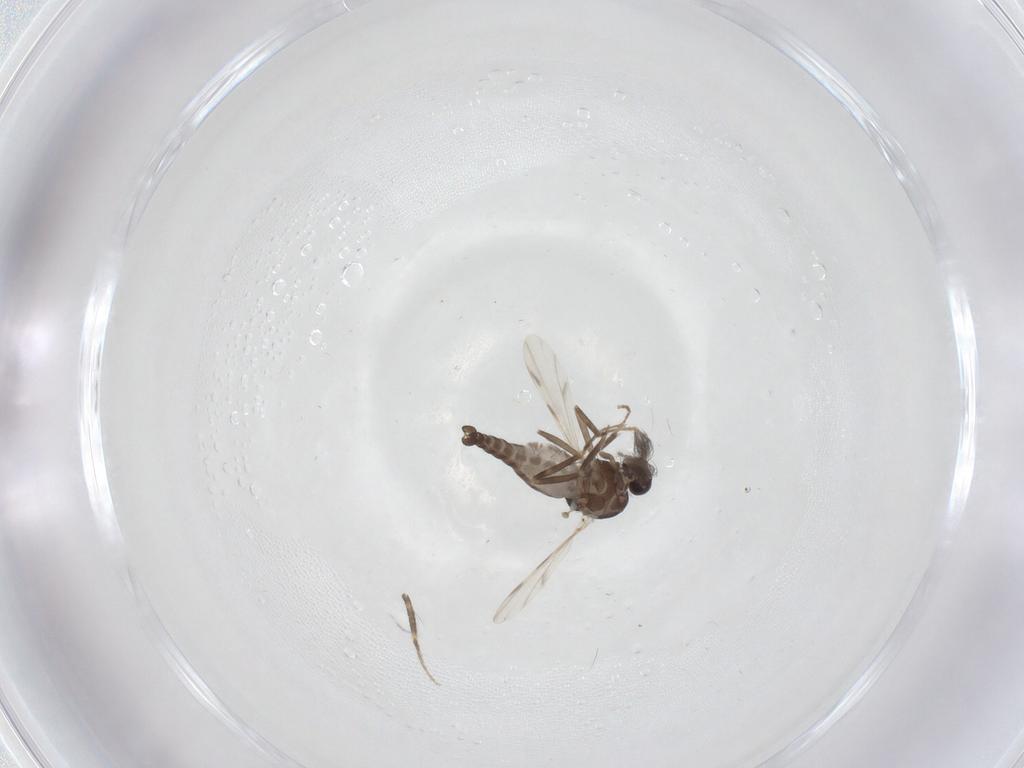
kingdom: Animalia
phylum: Arthropoda
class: Insecta
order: Diptera
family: Ceratopogonidae
